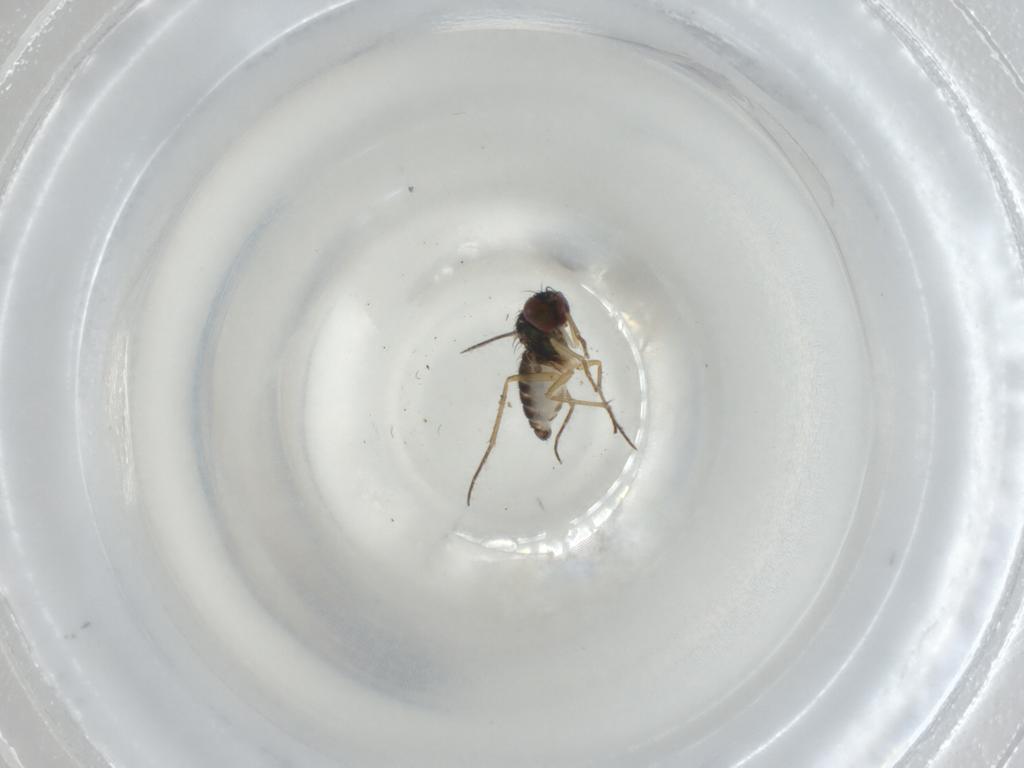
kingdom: Animalia
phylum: Arthropoda
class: Insecta
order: Diptera
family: Dolichopodidae
